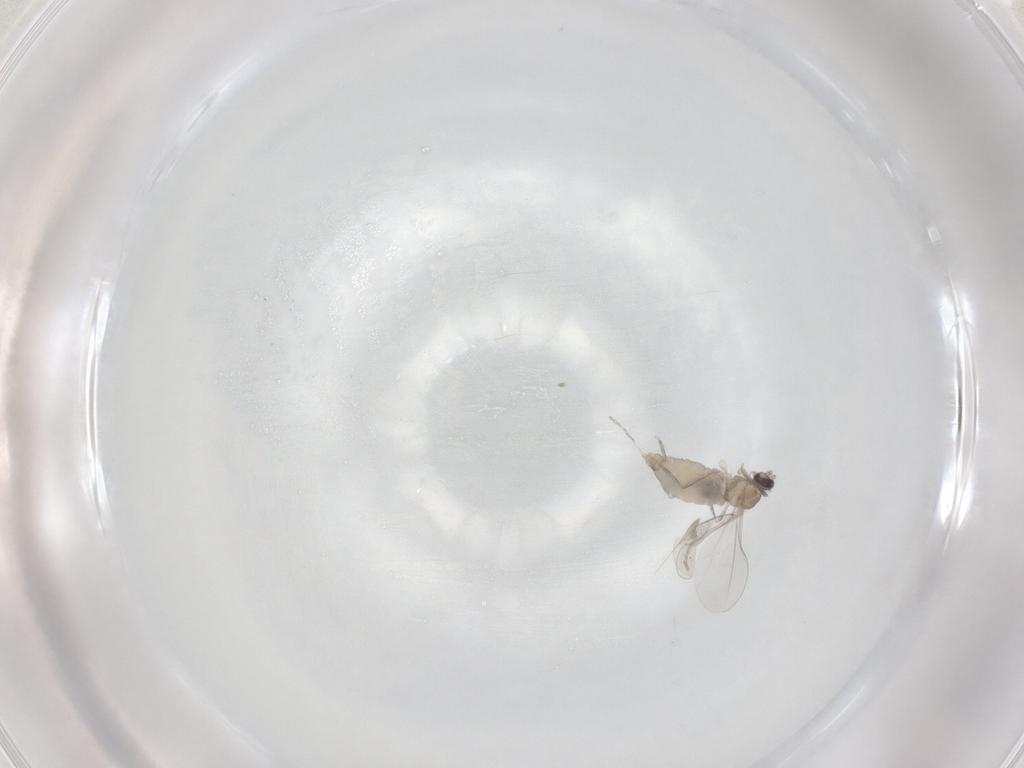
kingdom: Animalia
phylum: Arthropoda
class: Insecta
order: Diptera
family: Cecidomyiidae
